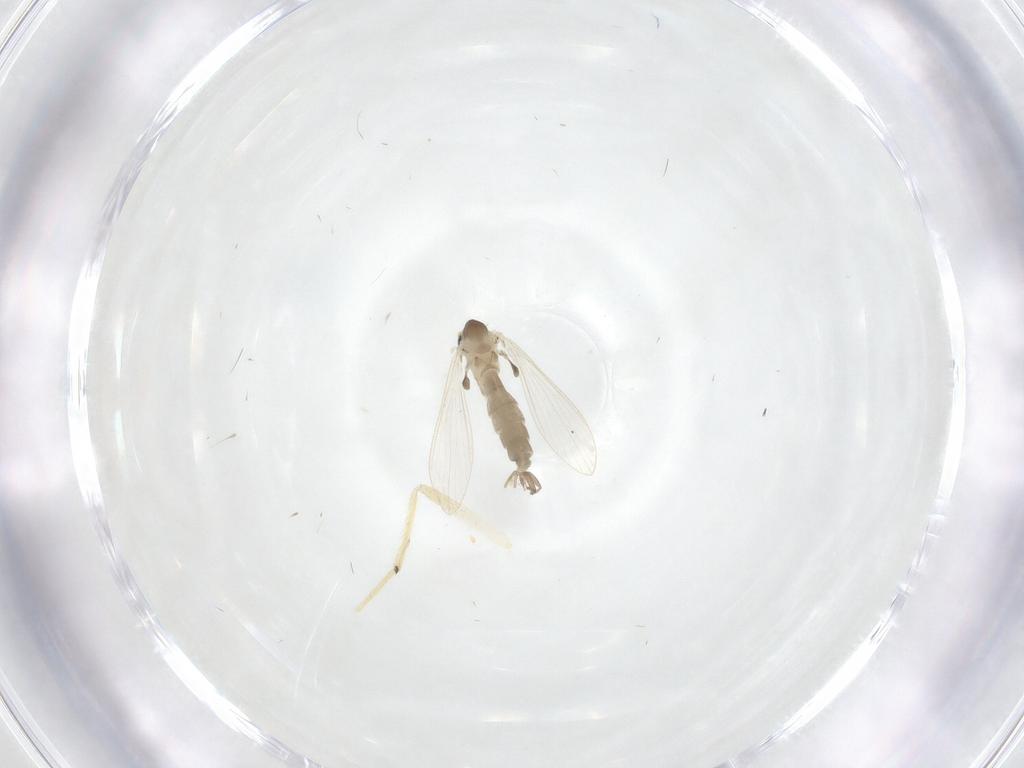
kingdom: Animalia
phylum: Arthropoda
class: Insecta
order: Diptera
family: Psychodidae
